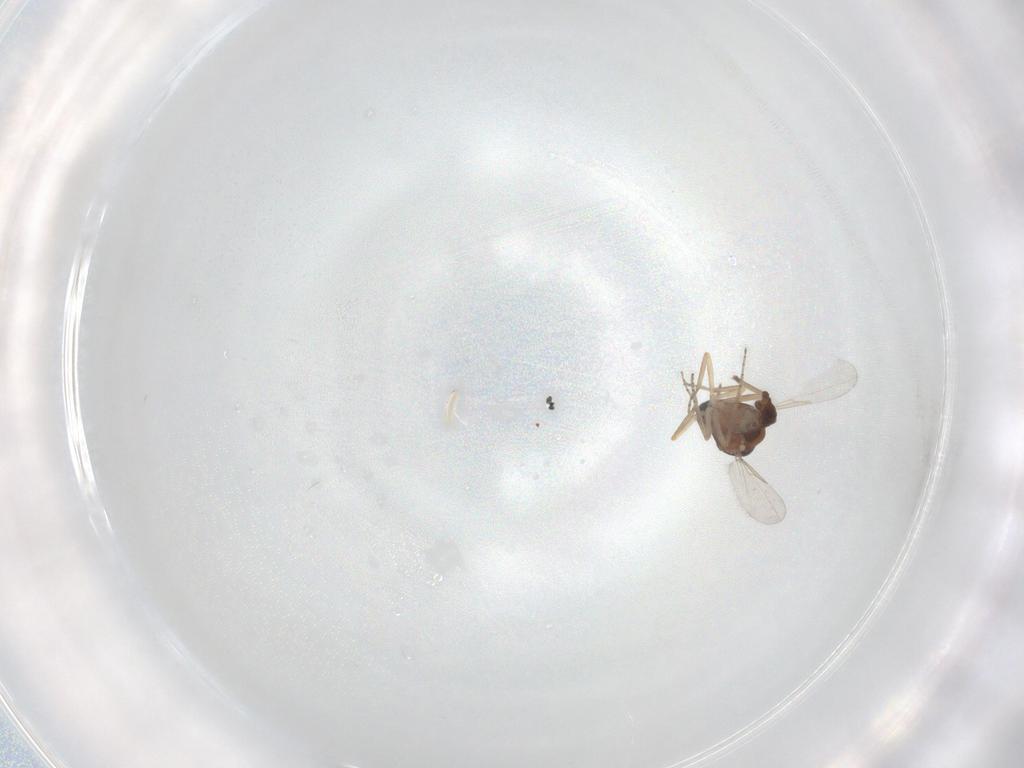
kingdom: Animalia
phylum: Arthropoda
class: Insecta
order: Diptera
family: Ceratopogonidae
